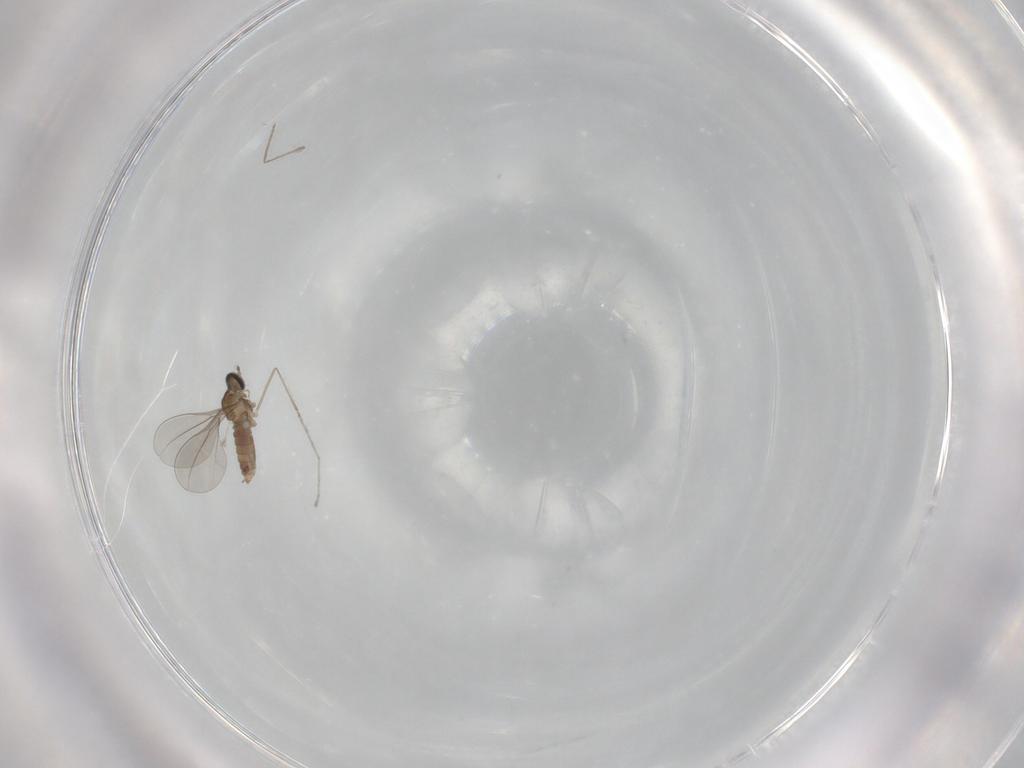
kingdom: Animalia
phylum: Arthropoda
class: Insecta
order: Diptera
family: Cecidomyiidae
